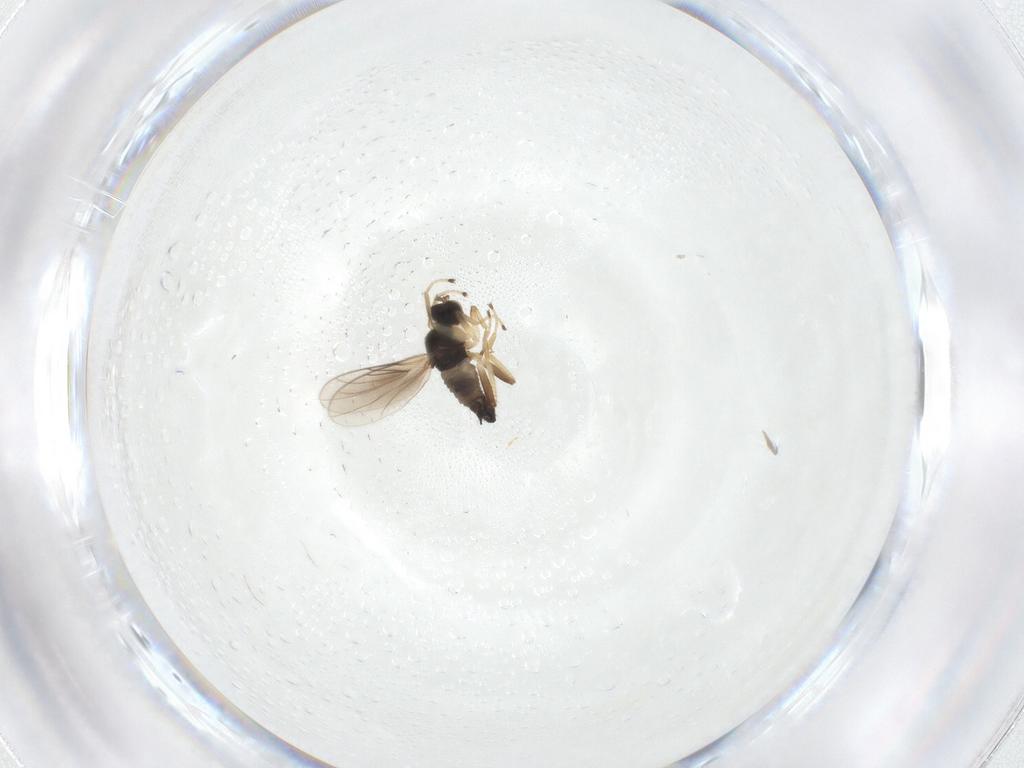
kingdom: Animalia
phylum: Arthropoda
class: Insecta
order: Diptera
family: Hybotidae
